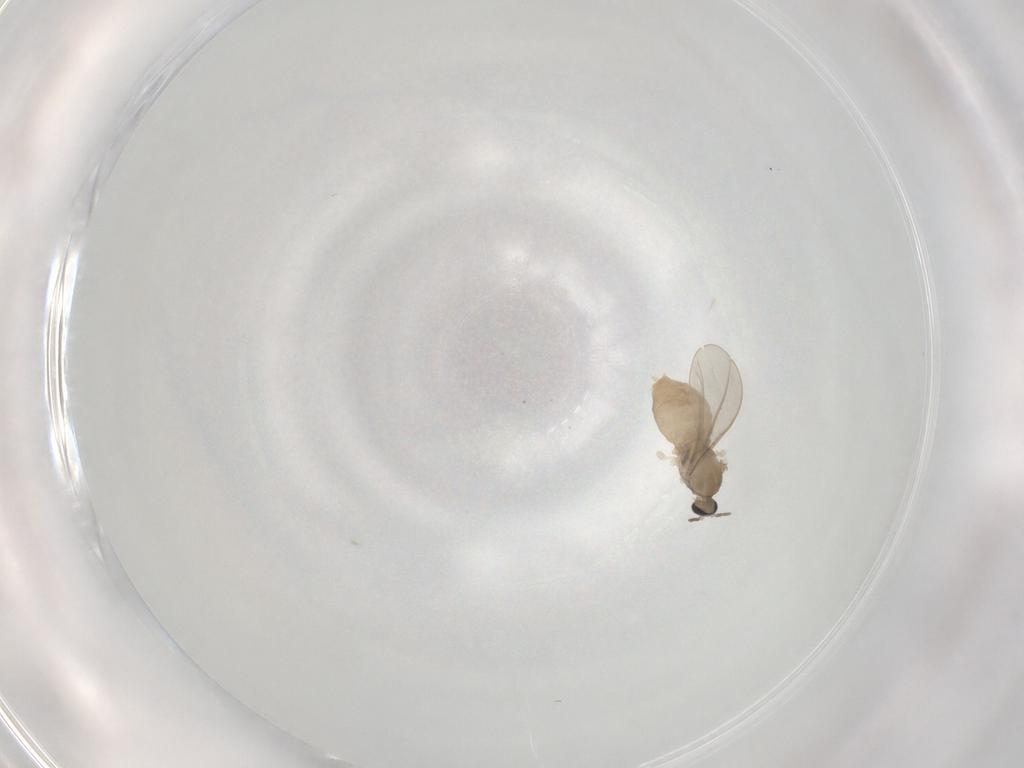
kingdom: Animalia
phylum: Arthropoda
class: Insecta
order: Diptera
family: Cecidomyiidae
